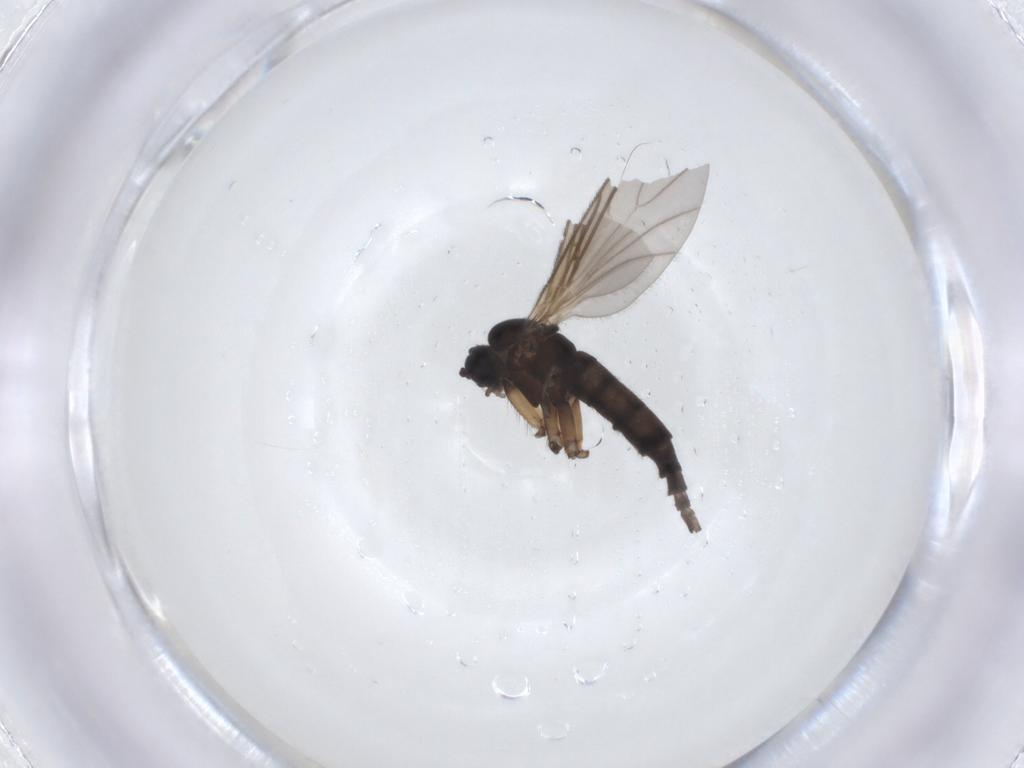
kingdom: Animalia
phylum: Arthropoda
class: Insecta
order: Diptera
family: Sciaridae
